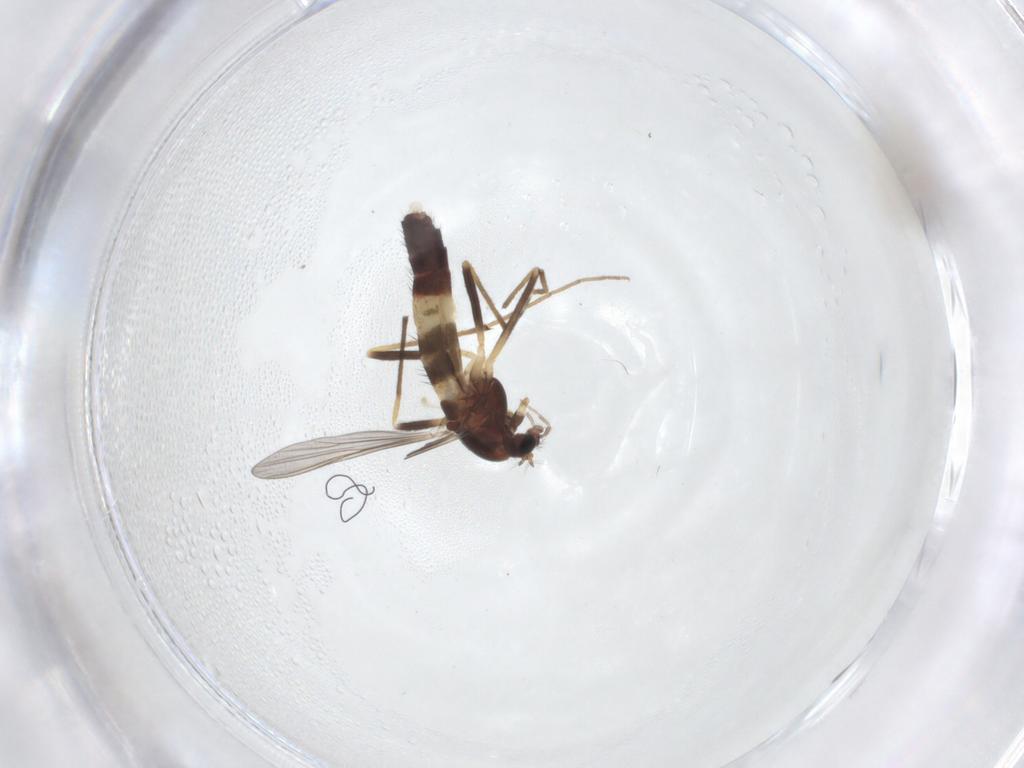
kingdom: Animalia
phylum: Arthropoda
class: Insecta
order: Diptera
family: Cecidomyiidae
